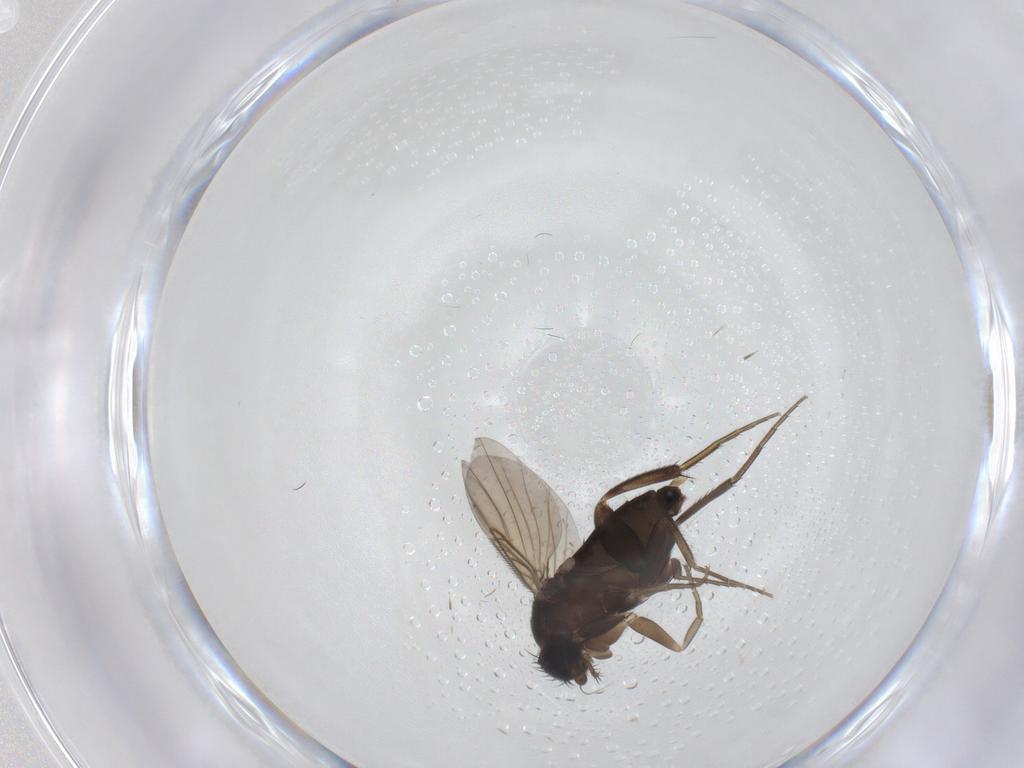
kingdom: Animalia
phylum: Arthropoda
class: Insecta
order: Diptera
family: Phoridae
